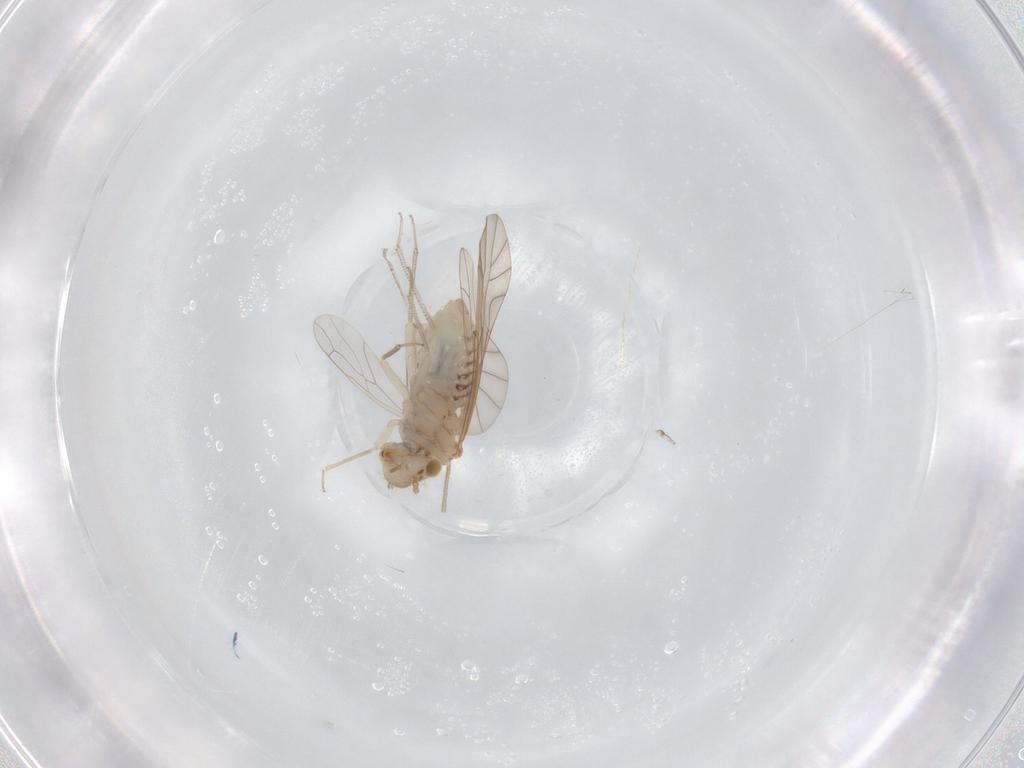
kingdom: Animalia
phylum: Arthropoda
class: Insecta
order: Psocodea
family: Lachesillidae
